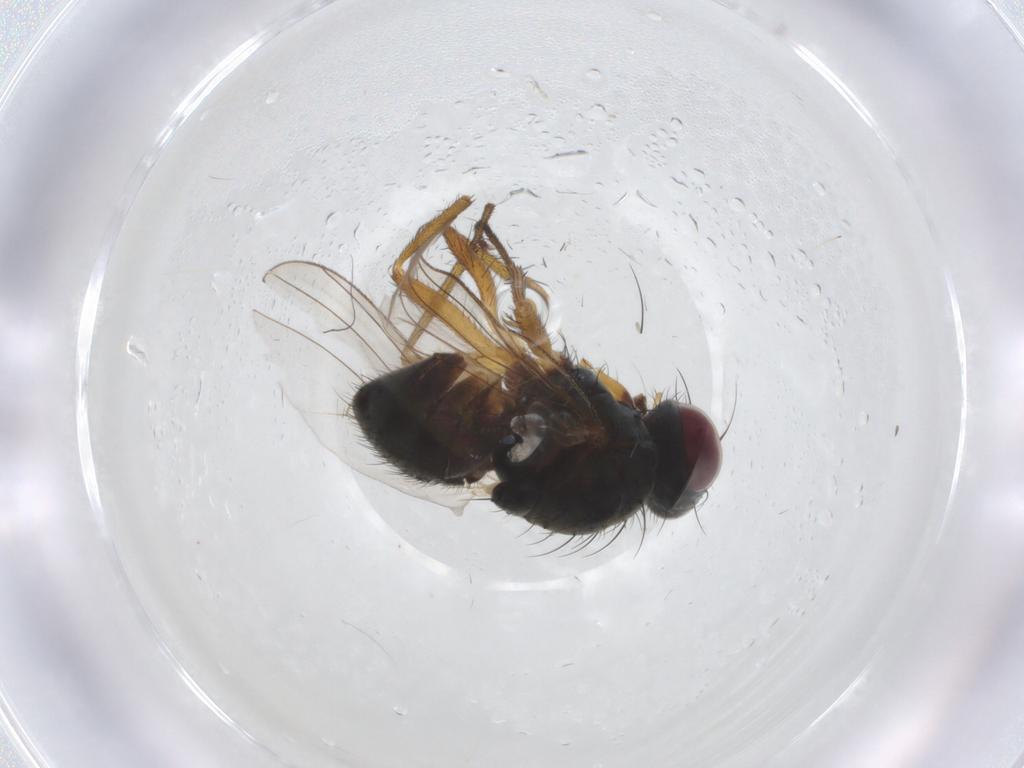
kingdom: Animalia
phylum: Arthropoda
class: Insecta
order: Diptera
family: Muscidae
